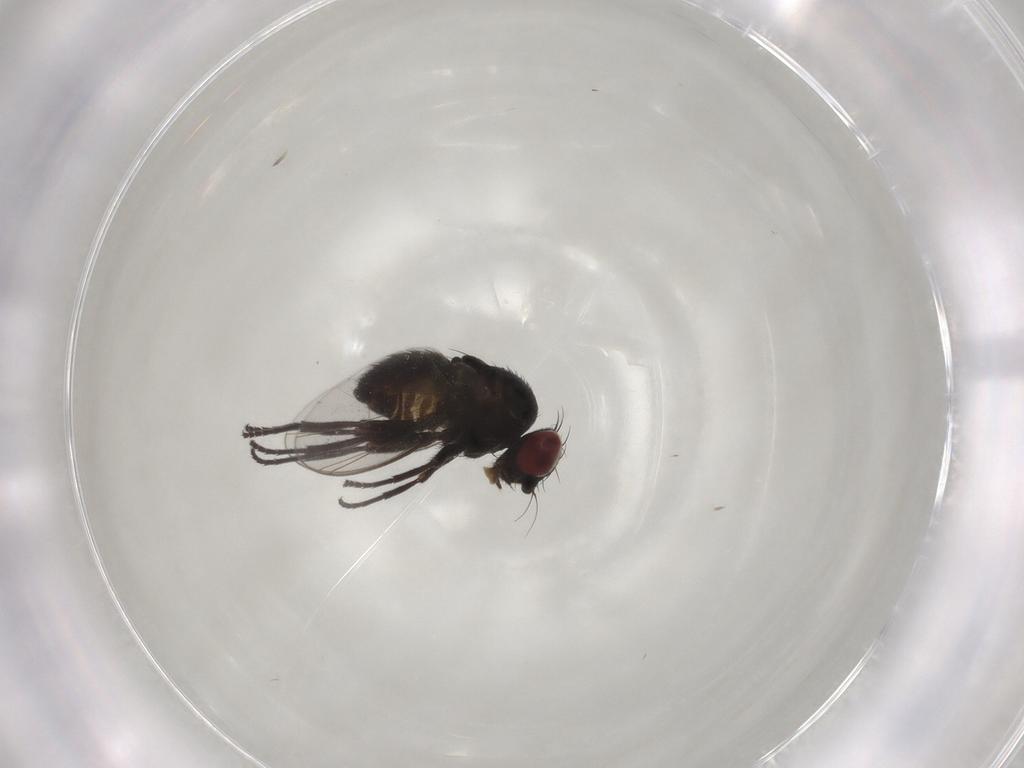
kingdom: Animalia
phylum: Arthropoda
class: Insecta
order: Diptera
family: Agromyzidae
